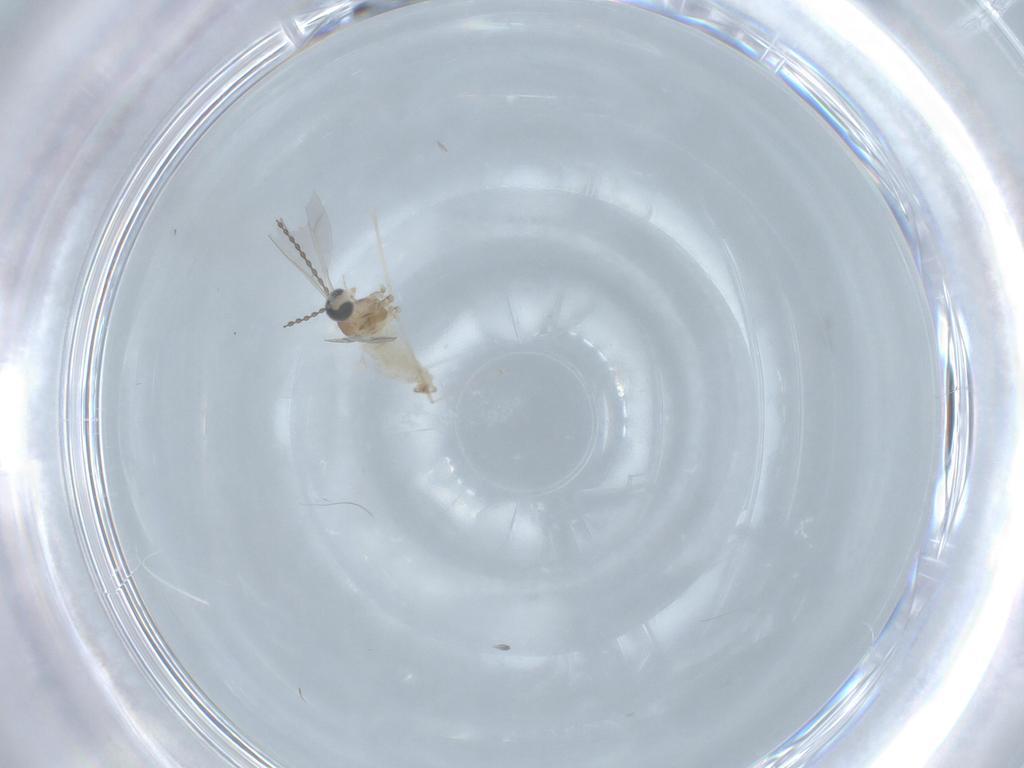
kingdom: Animalia
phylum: Arthropoda
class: Insecta
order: Diptera
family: Cecidomyiidae
